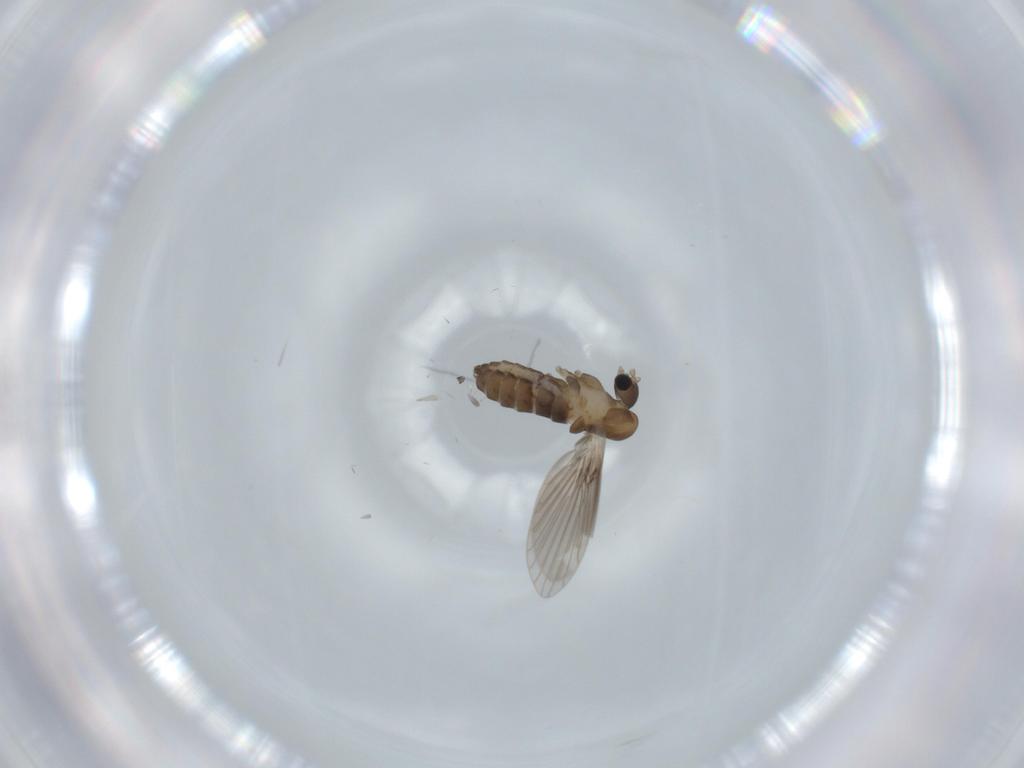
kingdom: Animalia
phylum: Arthropoda
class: Insecta
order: Diptera
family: Psychodidae
